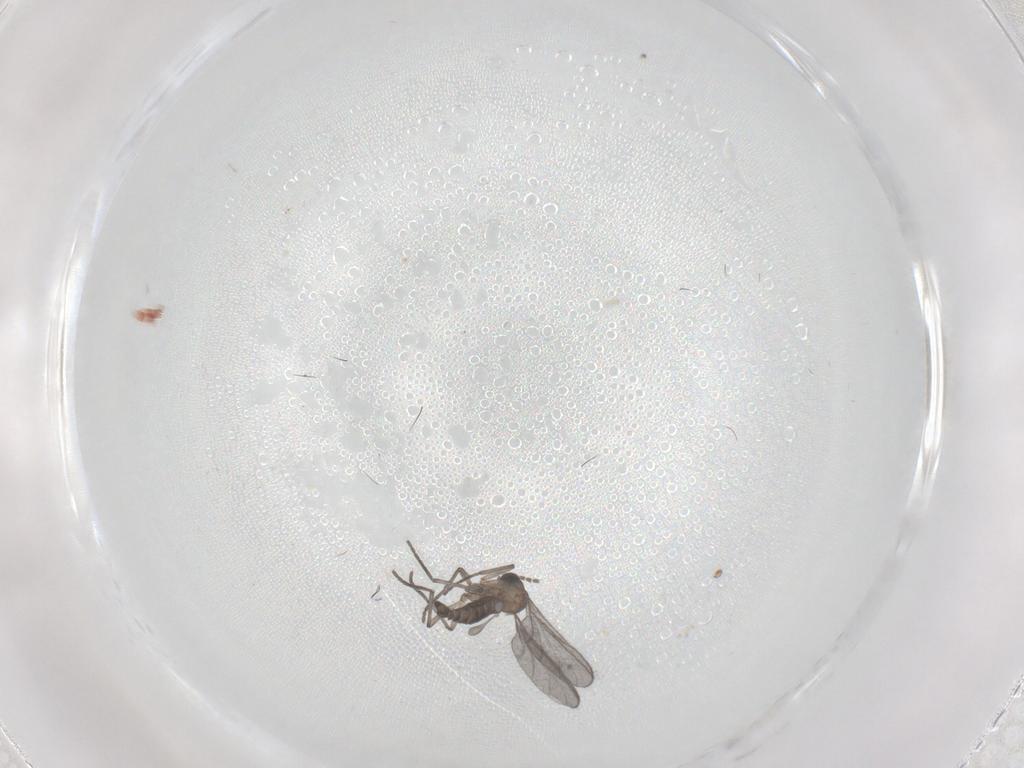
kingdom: Animalia
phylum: Arthropoda
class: Insecta
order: Diptera
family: Sciaridae
